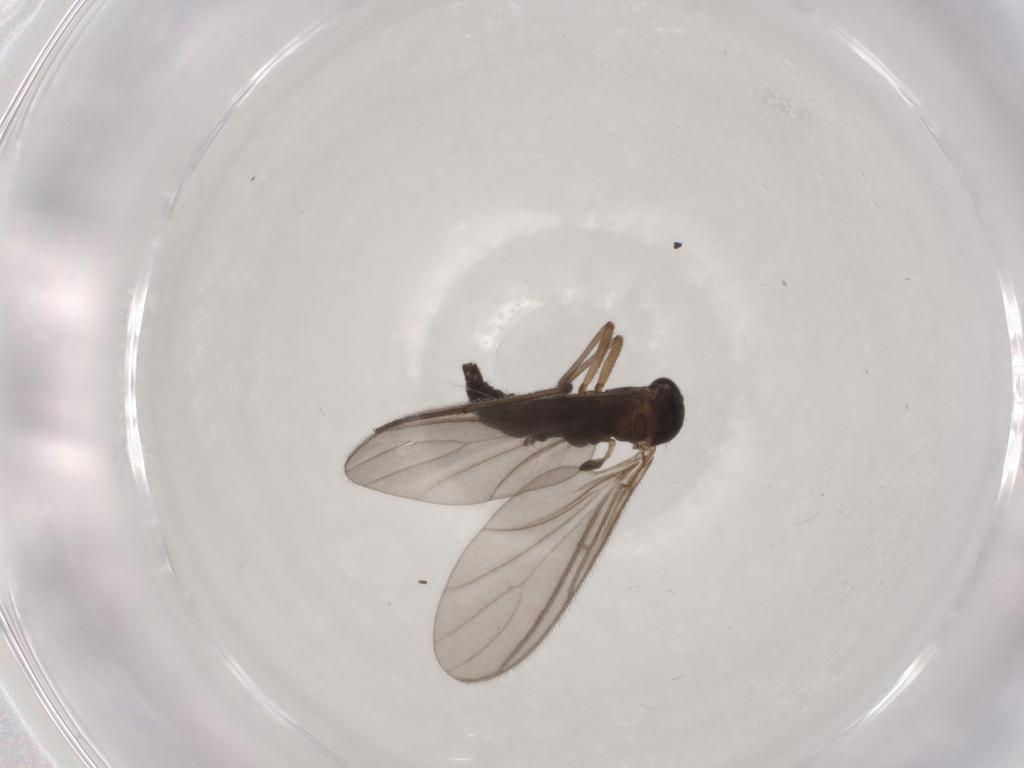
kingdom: Animalia
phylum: Arthropoda
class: Insecta
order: Diptera
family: Sciaridae
